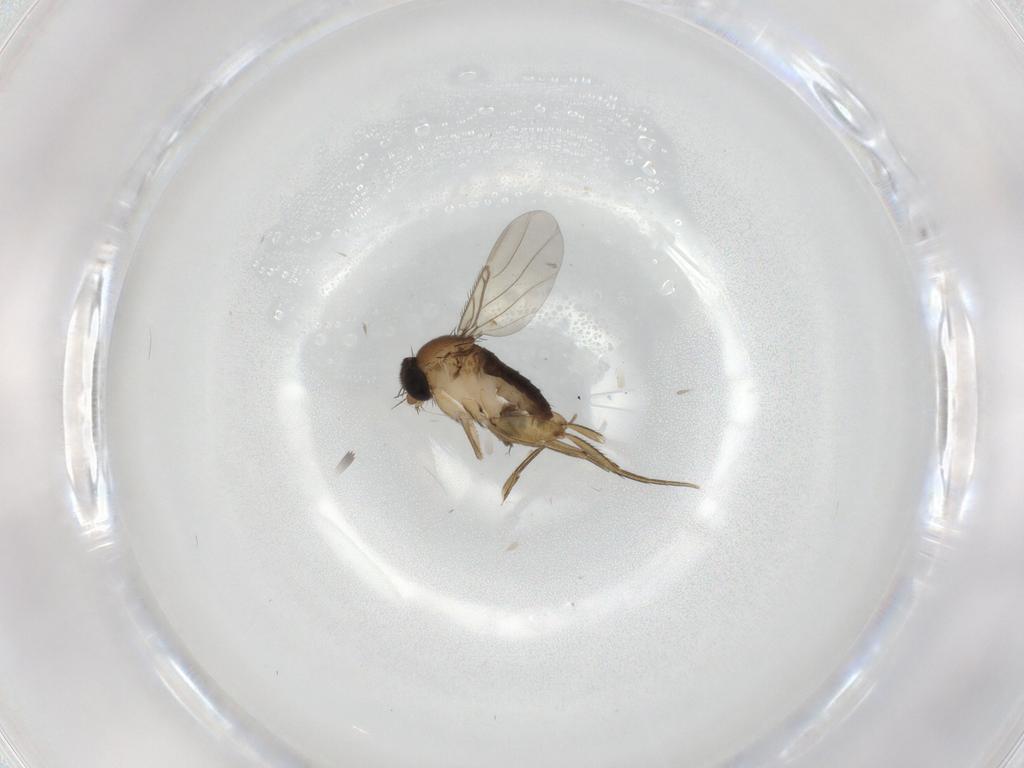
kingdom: Animalia
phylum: Arthropoda
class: Insecta
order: Diptera
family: Phoridae
